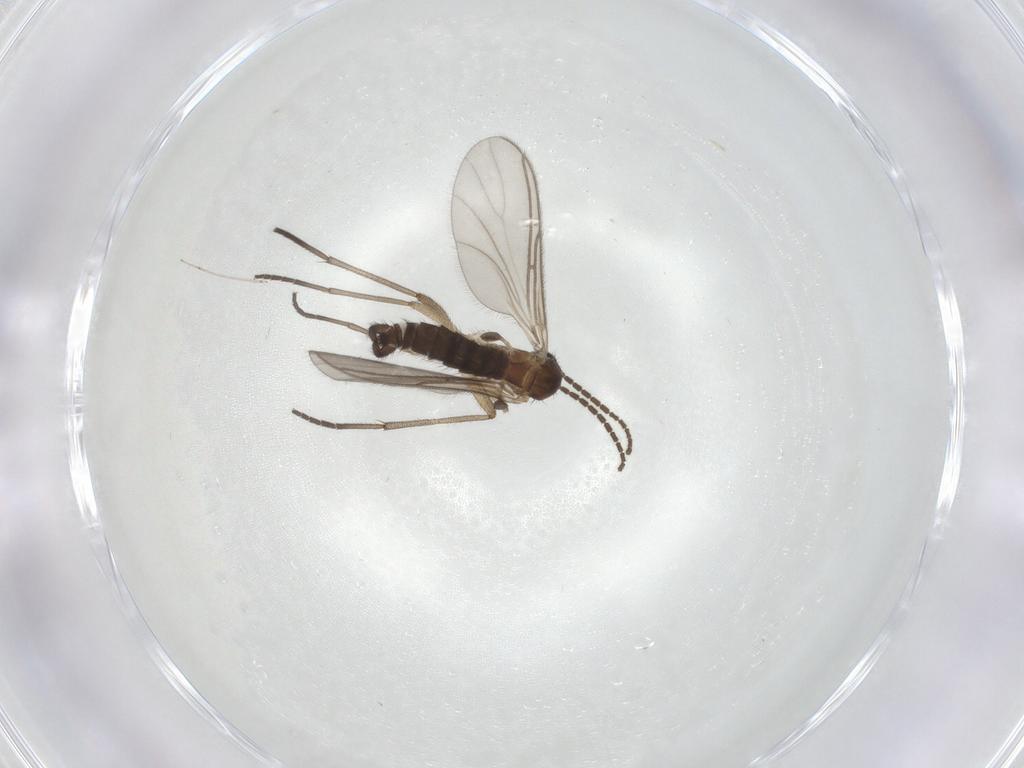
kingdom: Animalia
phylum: Arthropoda
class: Insecta
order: Diptera
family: Sciaridae
